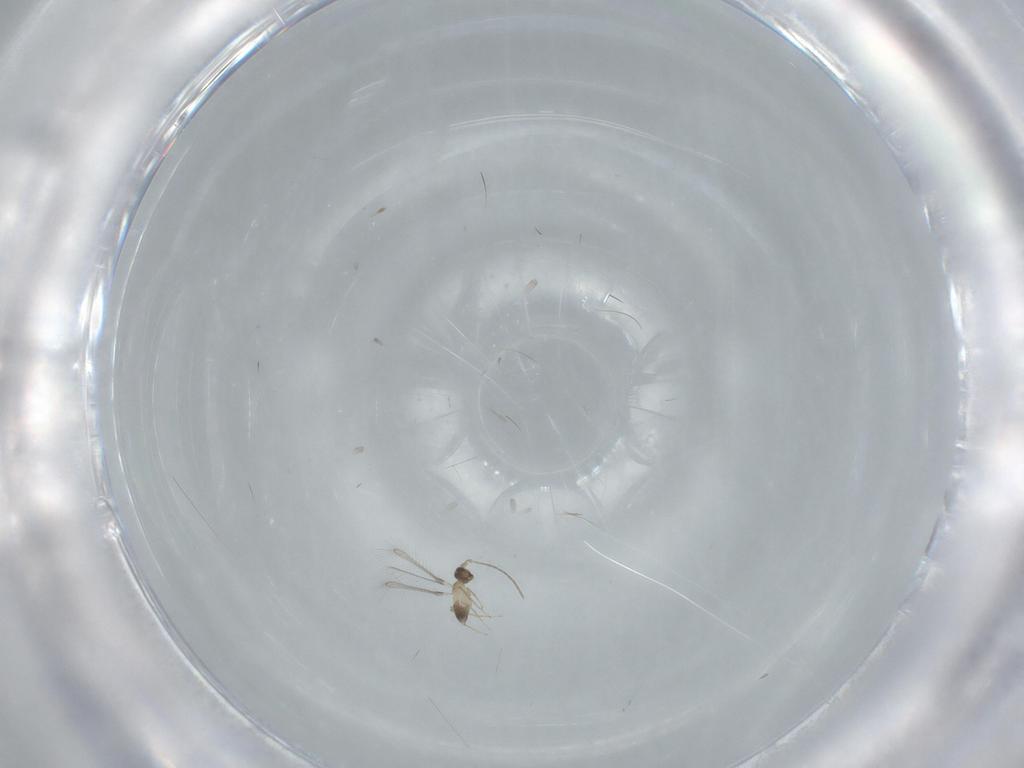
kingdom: Animalia
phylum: Arthropoda
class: Insecta
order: Hymenoptera
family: Mymaridae
